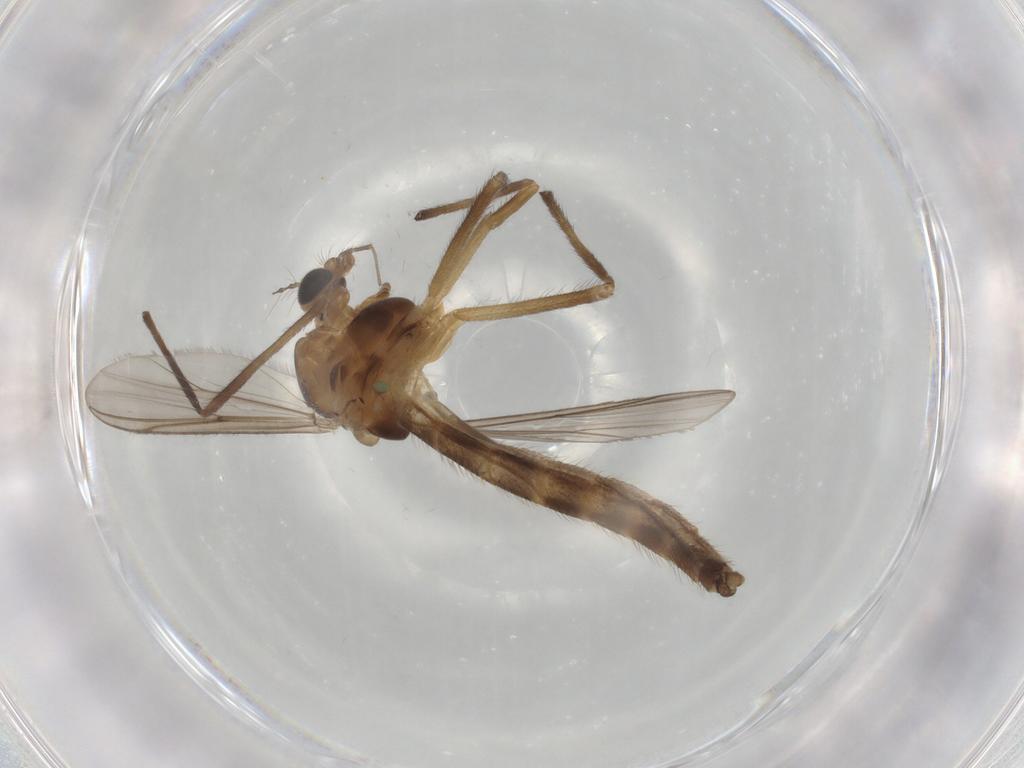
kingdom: Animalia
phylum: Arthropoda
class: Insecta
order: Diptera
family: Chironomidae
